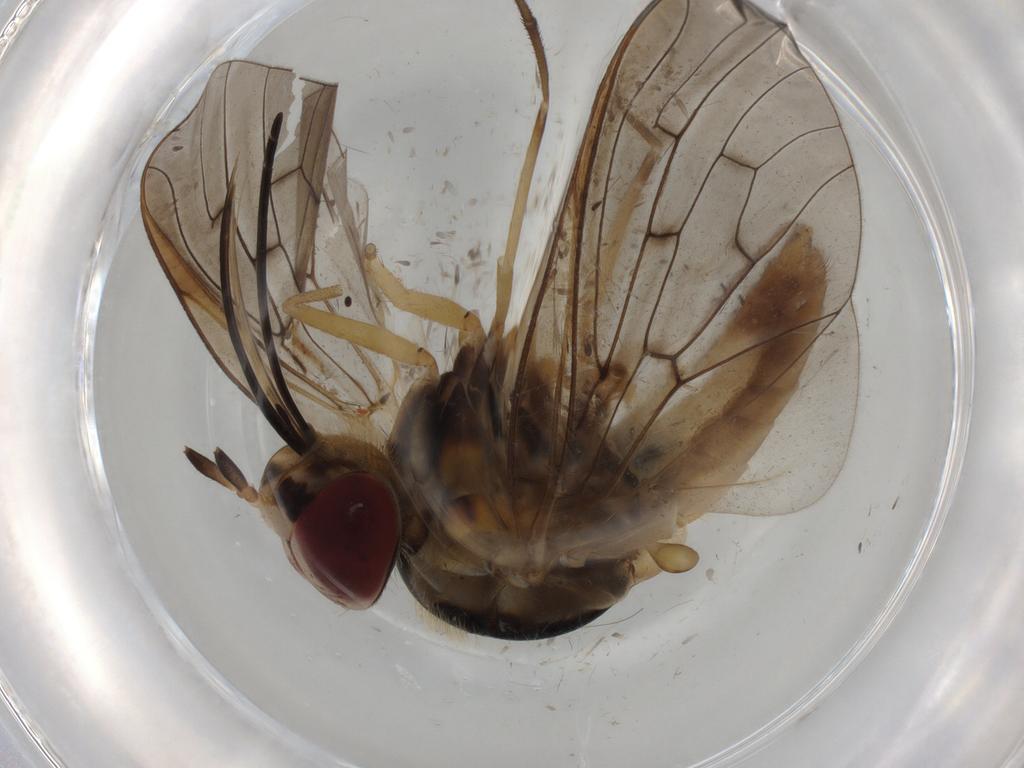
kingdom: Animalia
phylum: Arthropoda
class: Insecta
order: Diptera
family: Bombyliidae
